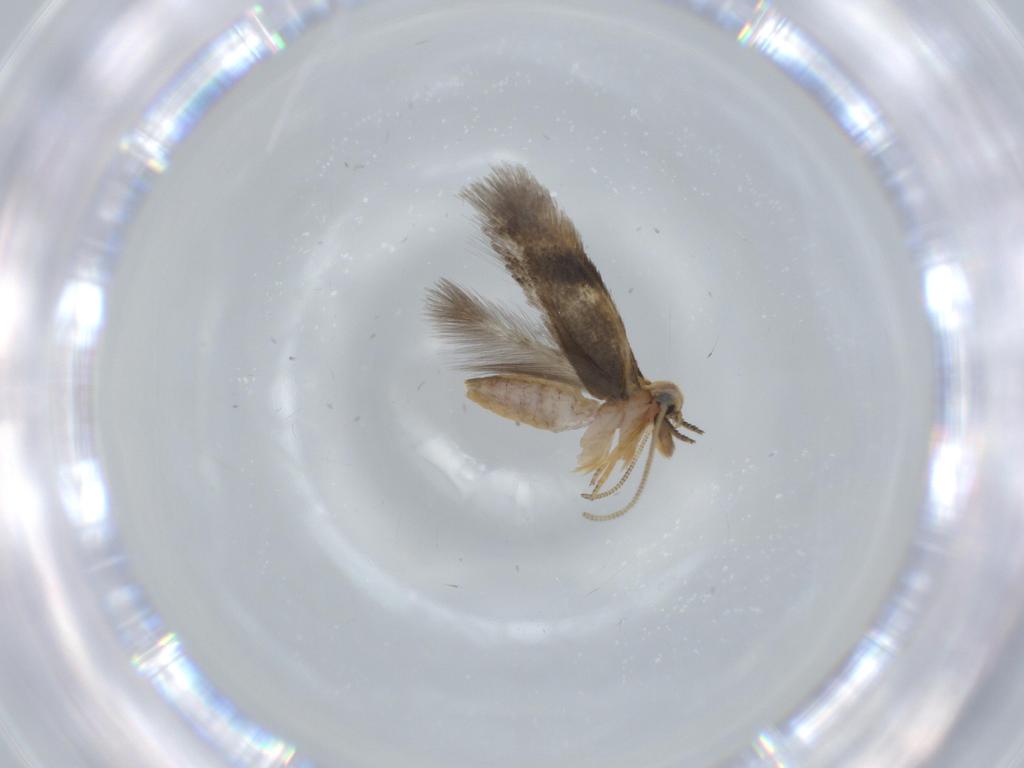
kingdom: Animalia
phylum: Arthropoda
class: Insecta
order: Lepidoptera
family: Nepticulidae
